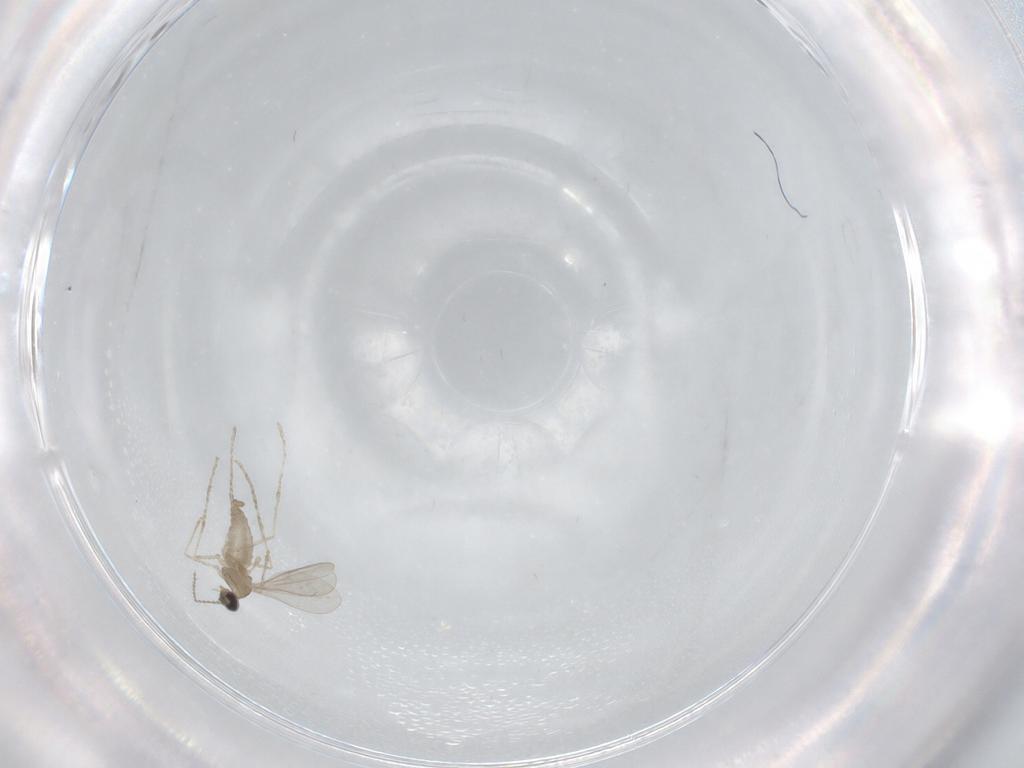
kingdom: Animalia
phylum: Arthropoda
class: Insecta
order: Diptera
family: Cecidomyiidae
